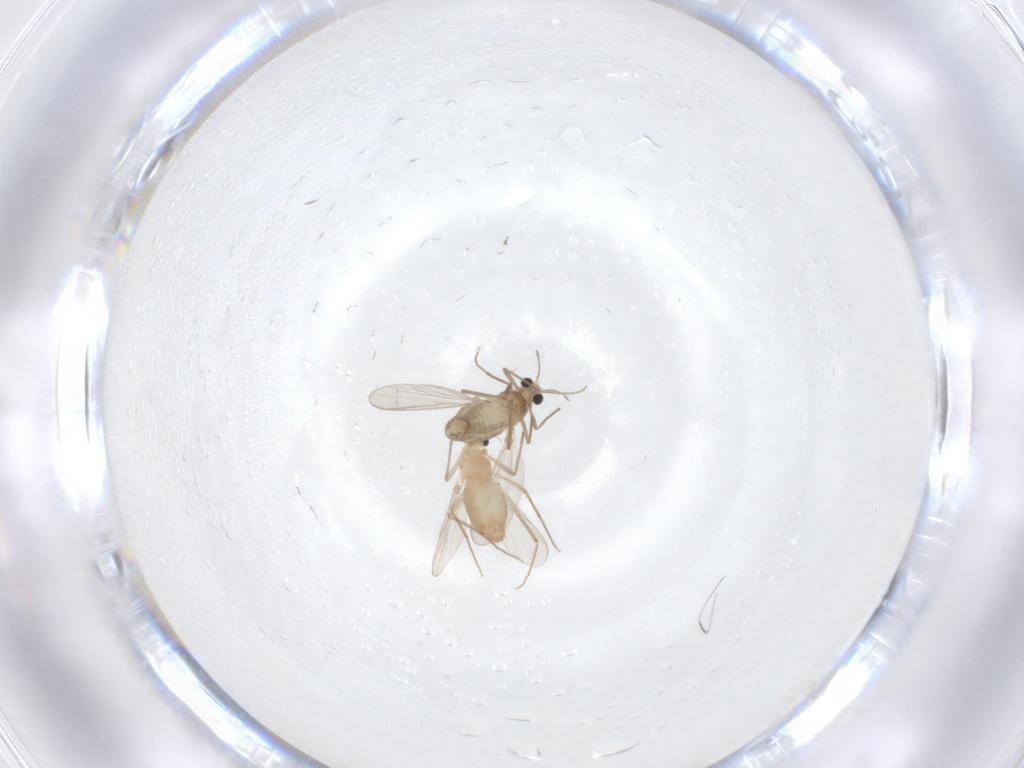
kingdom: Animalia
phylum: Arthropoda
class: Insecta
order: Diptera
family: Chironomidae
